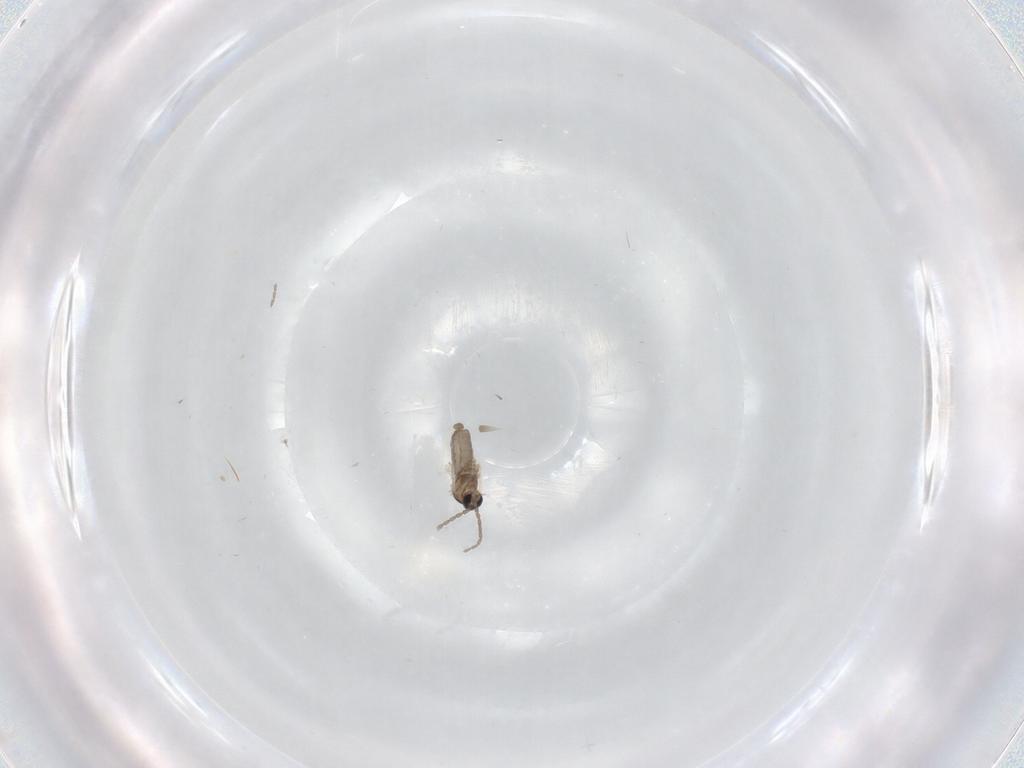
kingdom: Animalia
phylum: Arthropoda
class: Insecta
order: Diptera
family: Cecidomyiidae
